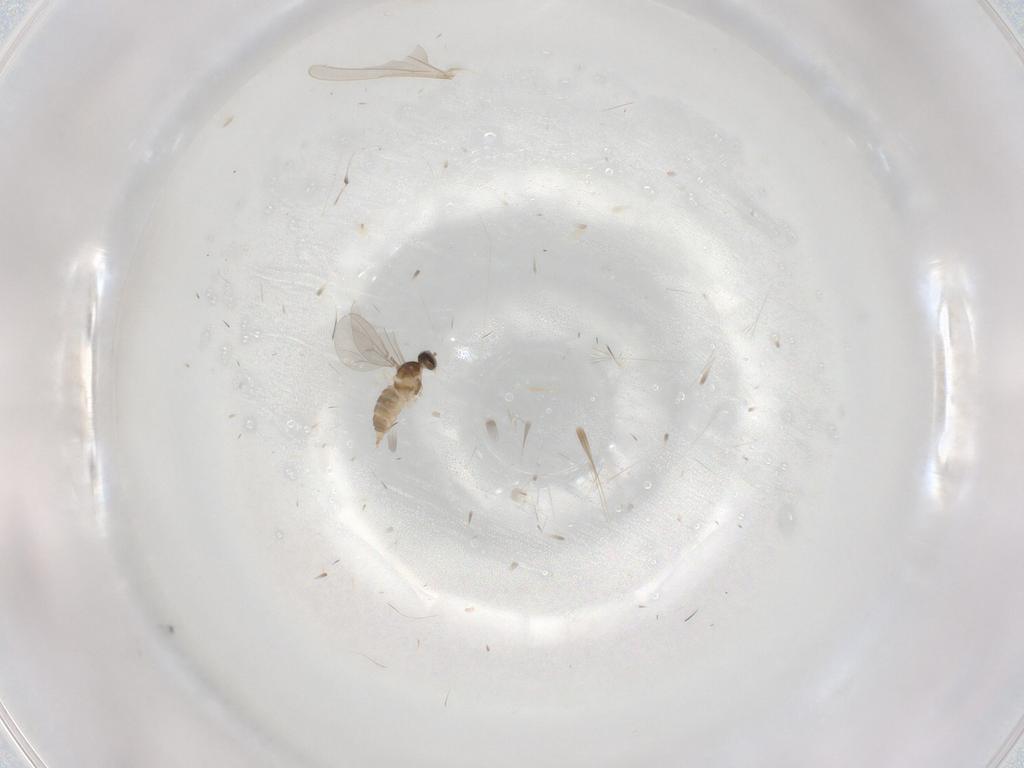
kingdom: Animalia
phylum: Arthropoda
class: Insecta
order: Diptera
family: Cecidomyiidae
